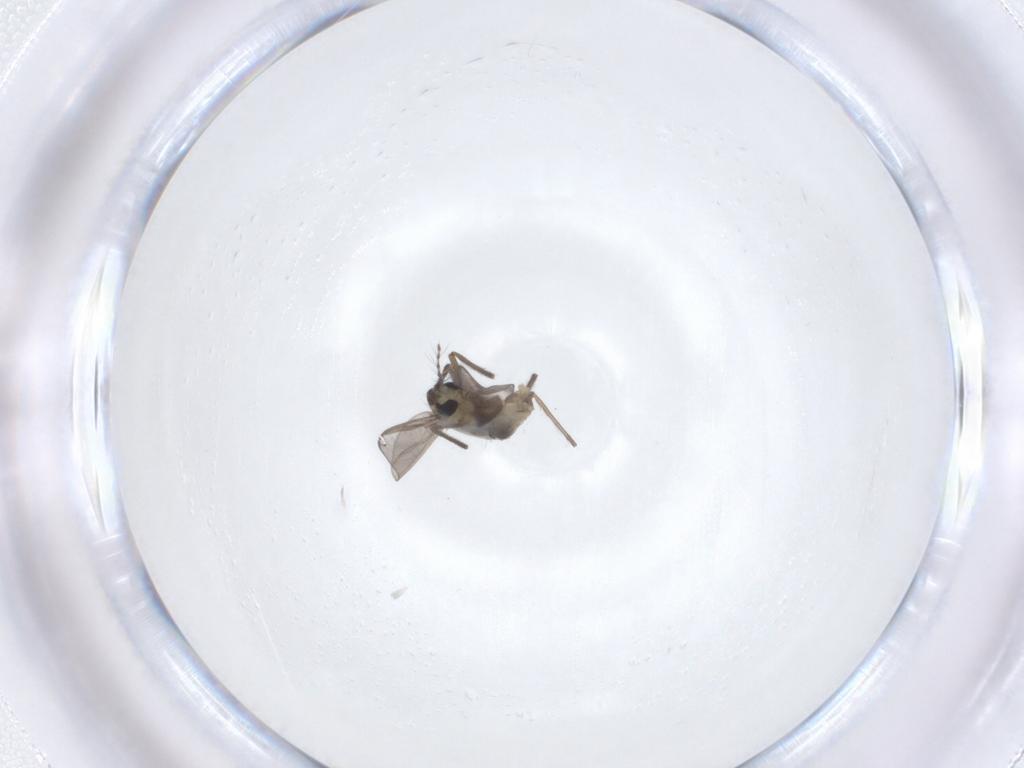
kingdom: Animalia
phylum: Arthropoda
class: Insecta
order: Diptera
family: Chironomidae
